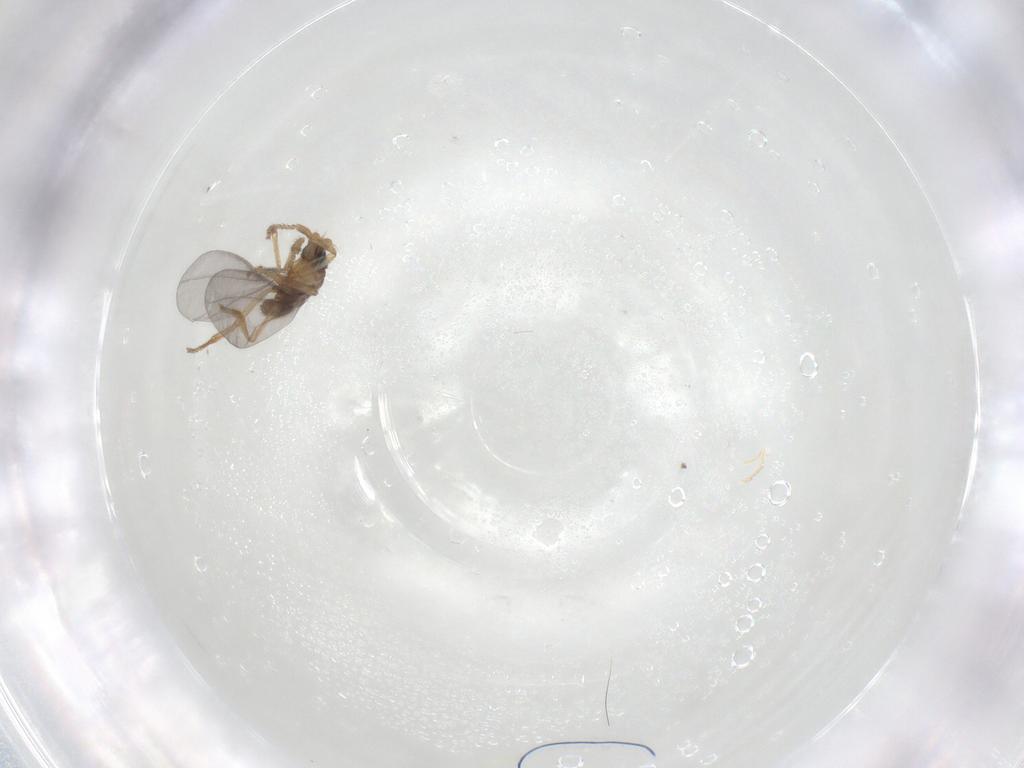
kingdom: Animalia
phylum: Arthropoda
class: Insecta
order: Diptera
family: Phoridae
